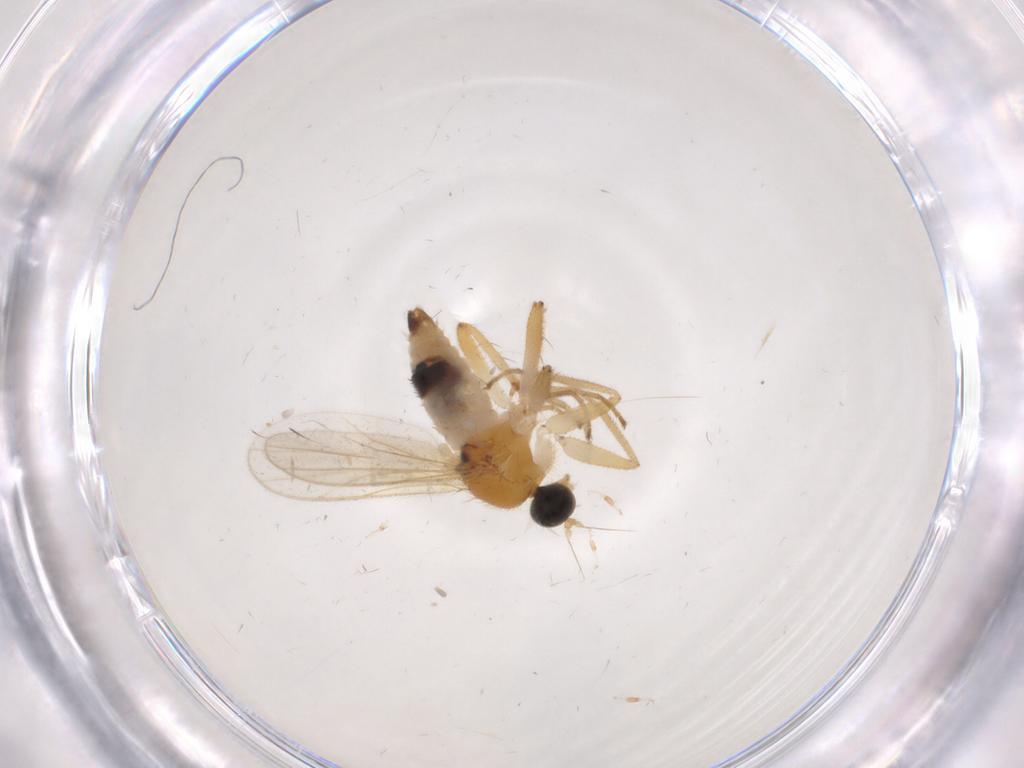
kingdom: Animalia
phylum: Arthropoda
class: Insecta
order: Diptera
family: Hybotidae
